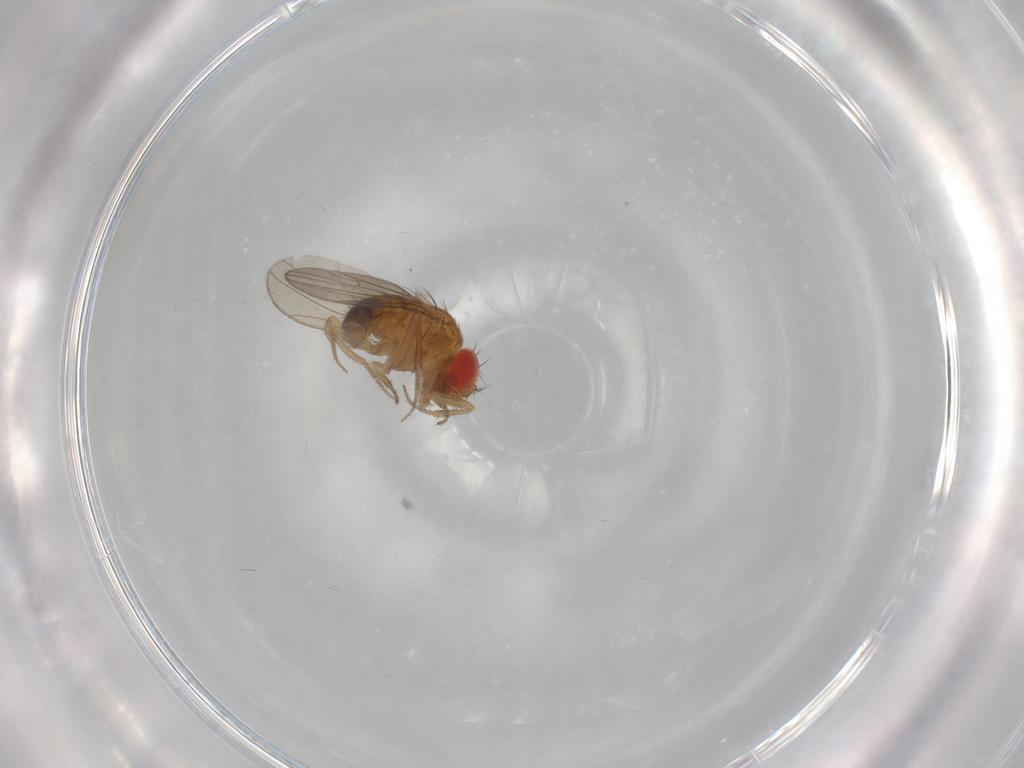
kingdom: Animalia
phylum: Arthropoda
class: Insecta
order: Diptera
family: Drosophilidae
